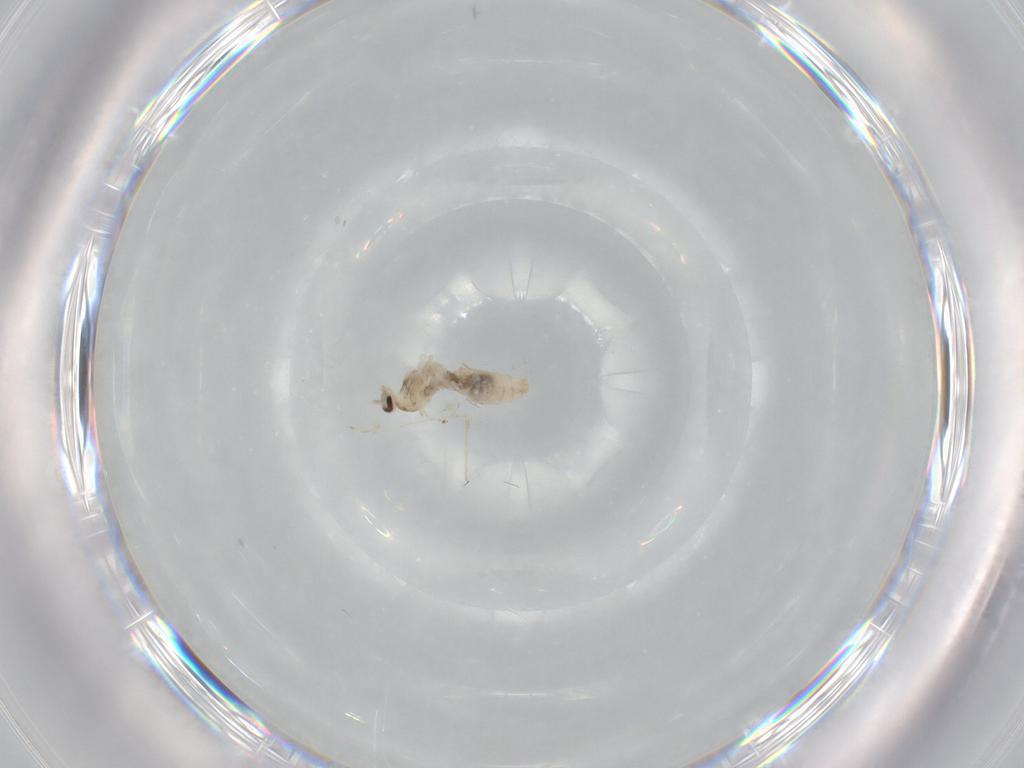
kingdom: Animalia
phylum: Arthropoda
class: Insecta
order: Diptera
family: Cecidomyiidae
